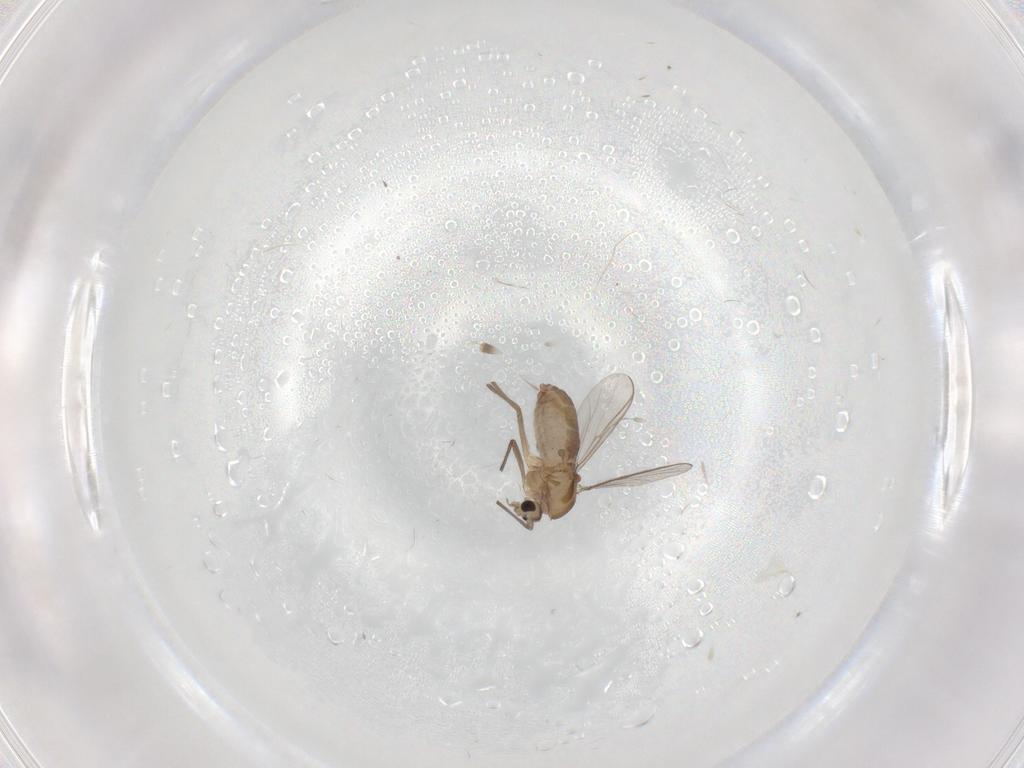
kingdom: Animalia
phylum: Arthropoda
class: Insecta
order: Diptera
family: Chironomidae
